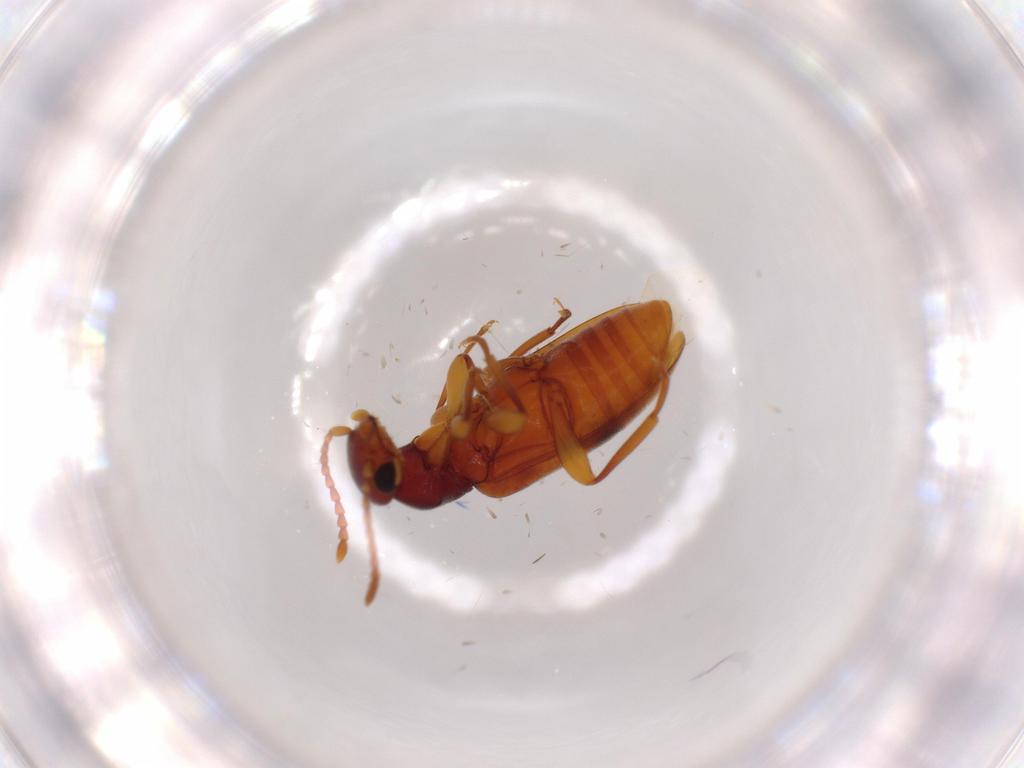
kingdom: Animalia
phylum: Arthropoda
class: Insecta
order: Coleoptera
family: Anthicidae
